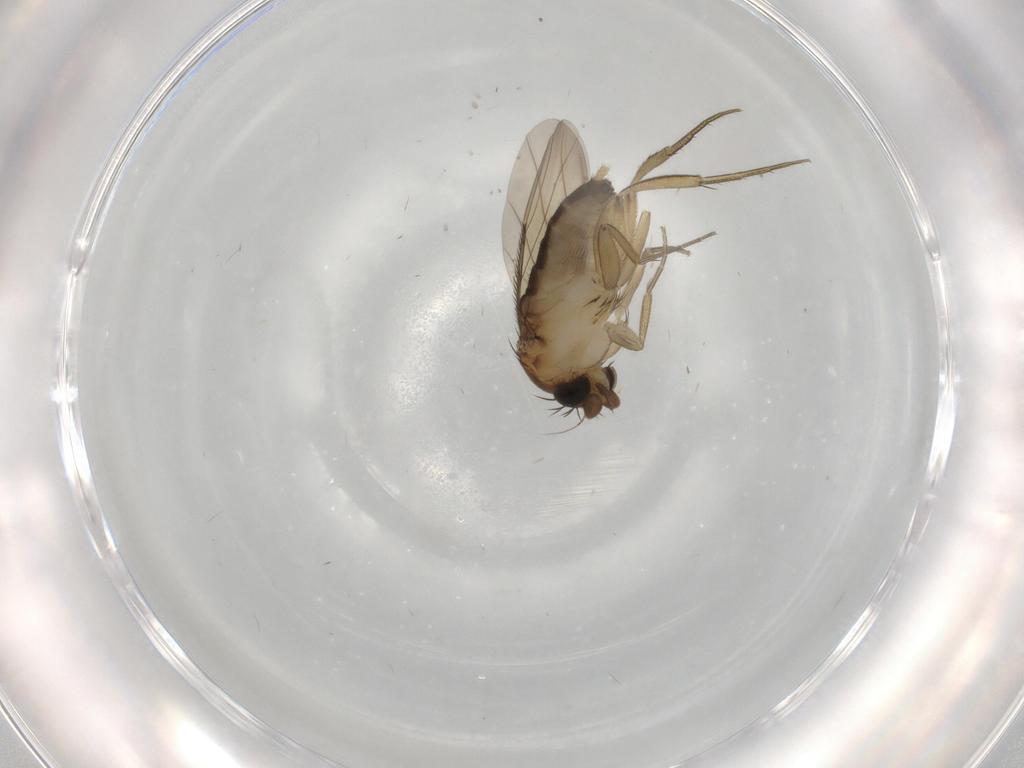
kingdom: Animalia
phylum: Arthropoda
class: Insecta
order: Diptera
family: Phoridae
